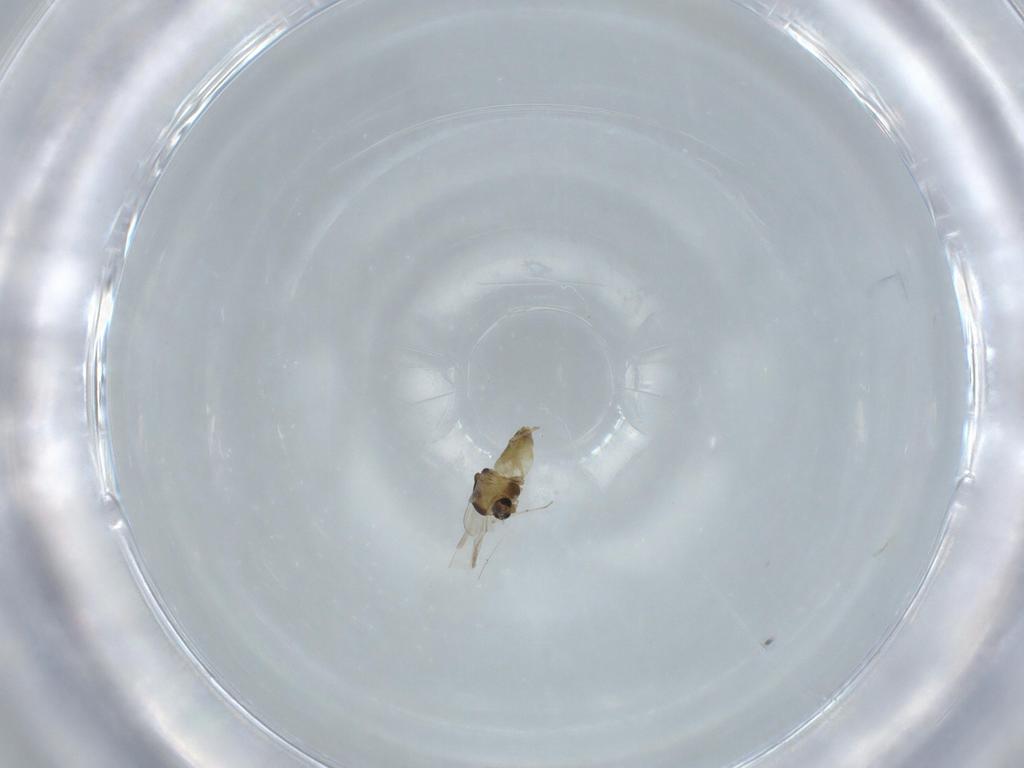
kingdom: Animalia
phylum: Arthropoda
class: Insecta
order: Diptera
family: Chironomidae
